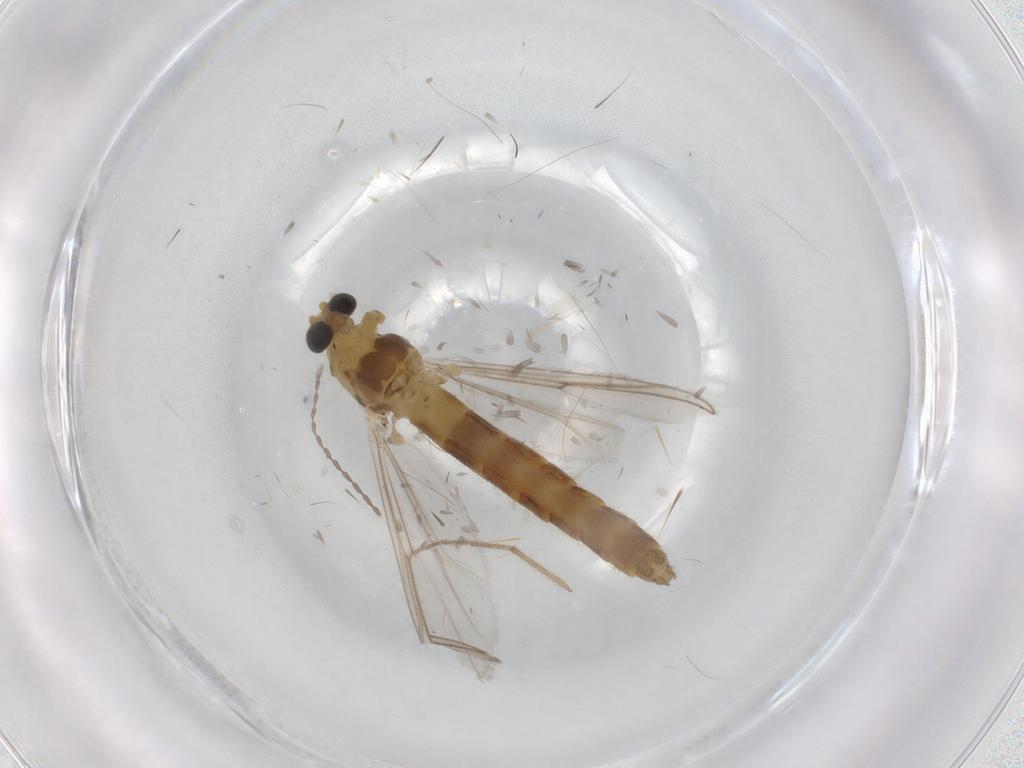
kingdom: Animalia
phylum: Arthropoda
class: Insecta
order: Diptera
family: Chironomidae
